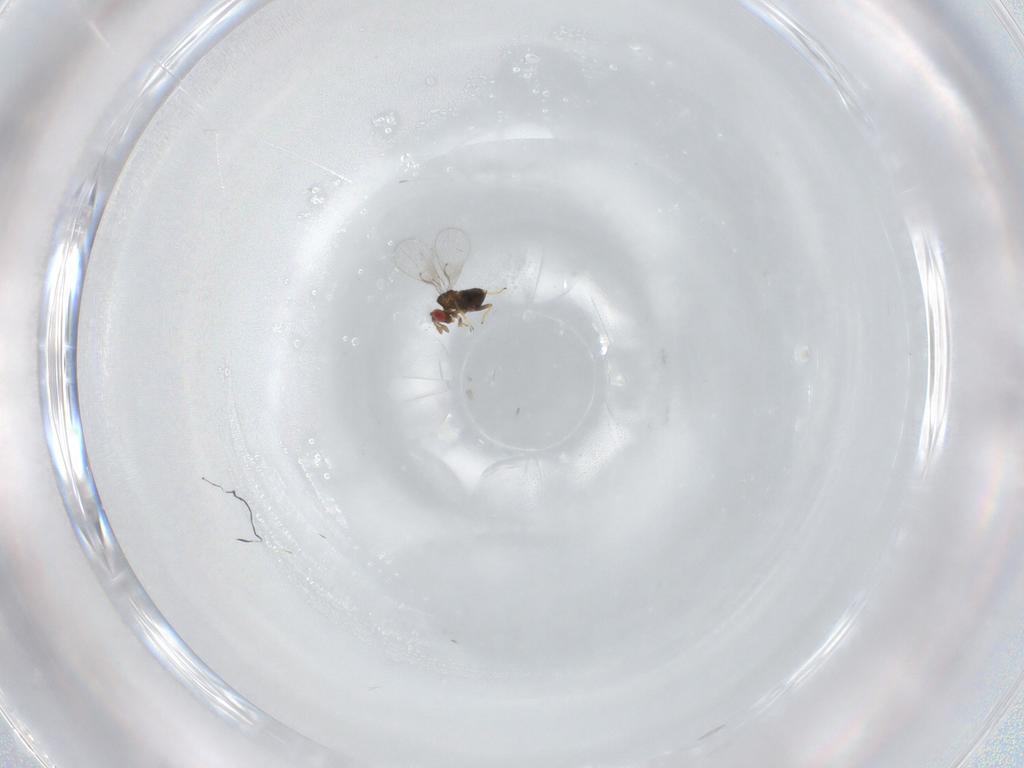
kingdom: Animalia
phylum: Arthropoda
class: Insecta
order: Hymenoptera
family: Trichogrammatidae
